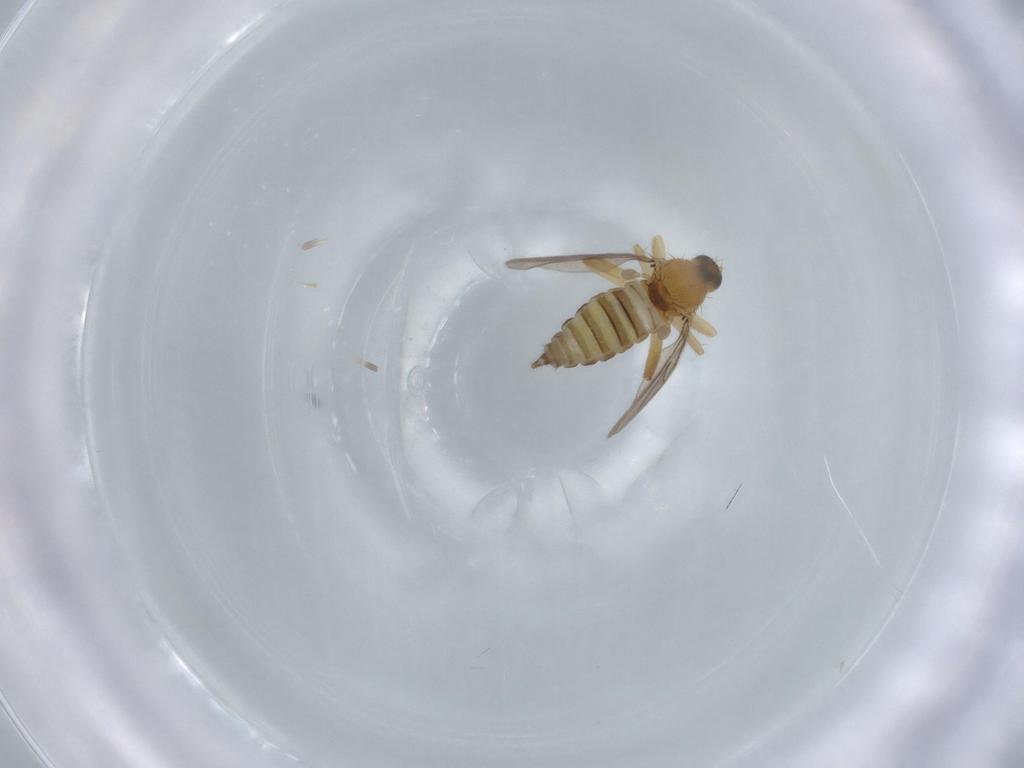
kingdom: Animalia
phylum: Arthropoda
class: Insecta
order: Diptera
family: Hybotidae
